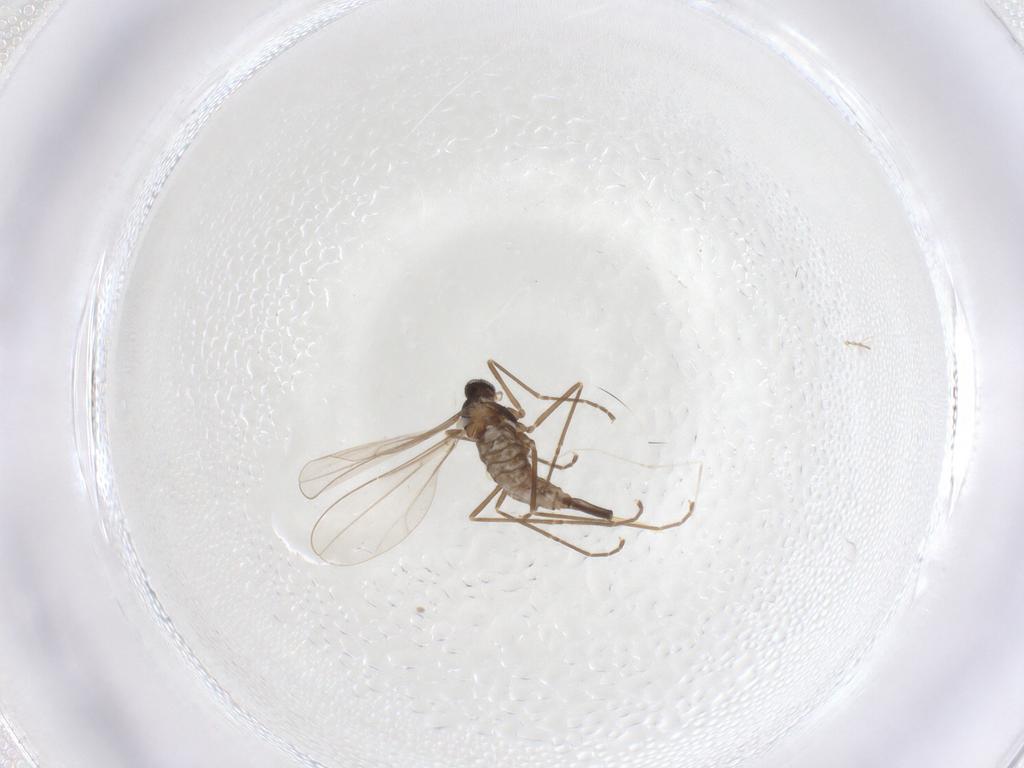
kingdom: Animalia
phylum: Arthropoda
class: Insecta
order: Diptera
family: Cecidomyiidae
